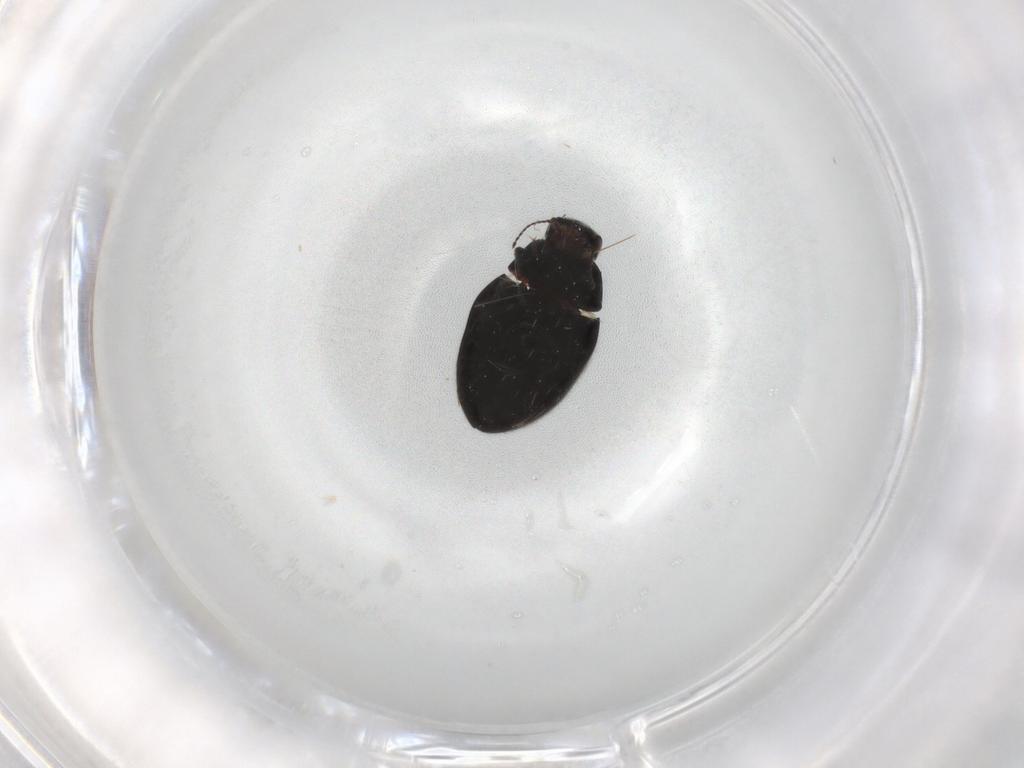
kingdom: Animalia
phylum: Arthropoda
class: Insecta
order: Coleoptera
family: Limnichidae
